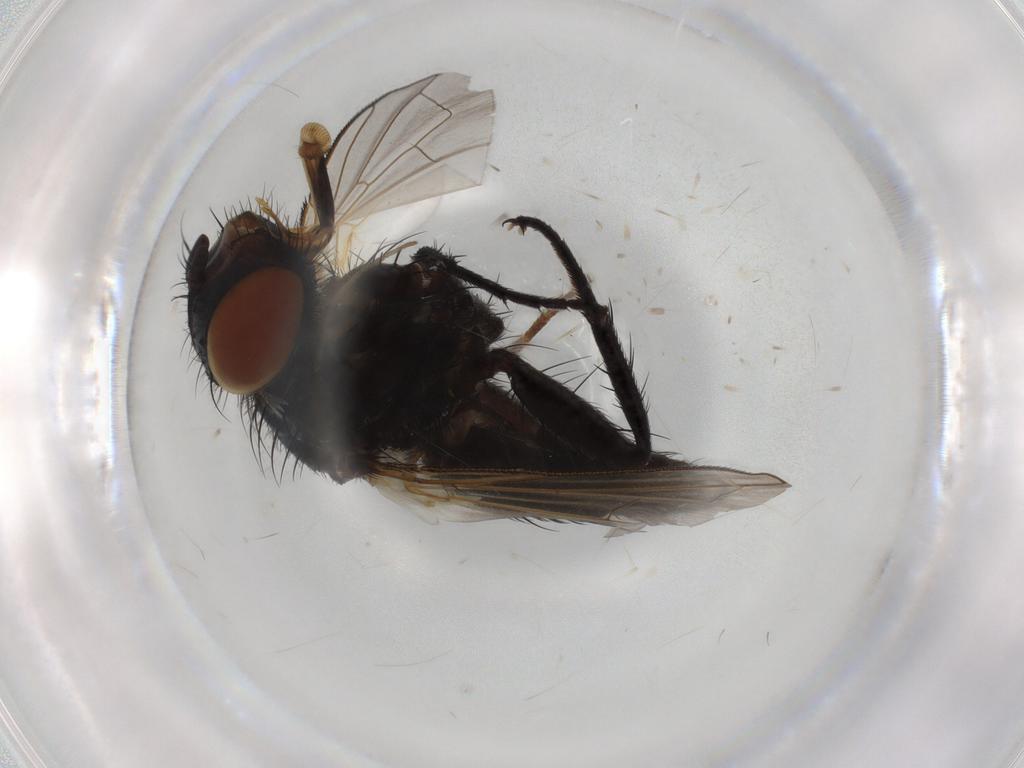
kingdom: Animalia
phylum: Arthropoda
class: Insecta
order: Diptera
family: Tachinidae
